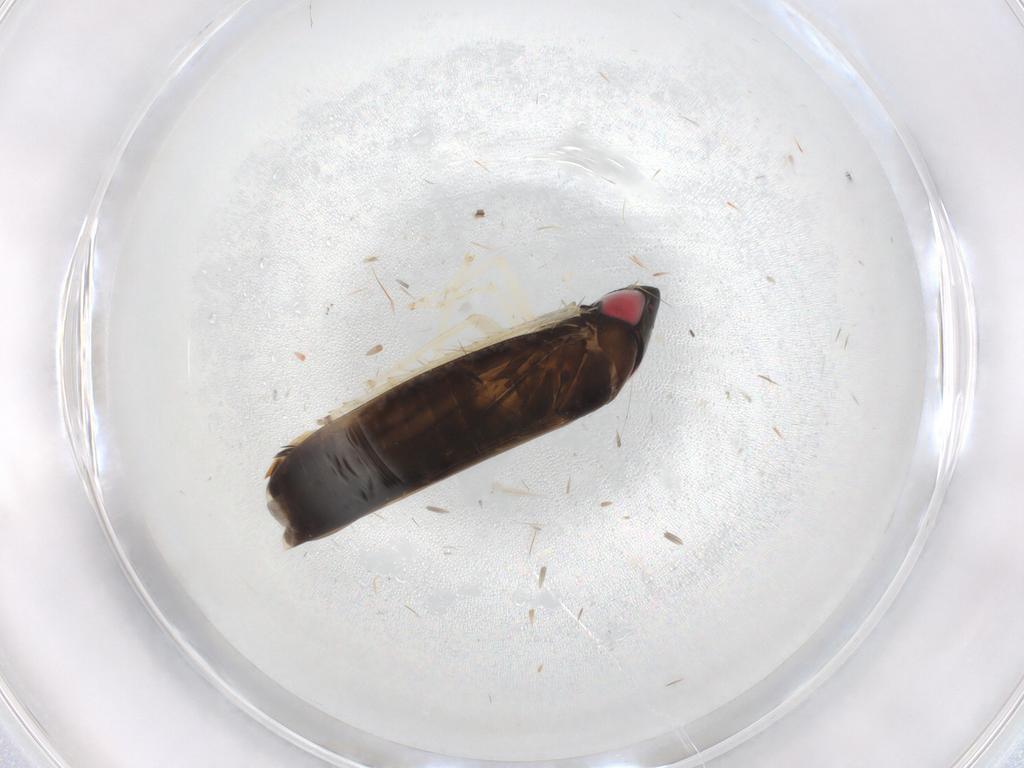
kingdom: Animalia
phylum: Arthropoda
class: Insecta
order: Hemiptera
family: Cicadellidae
